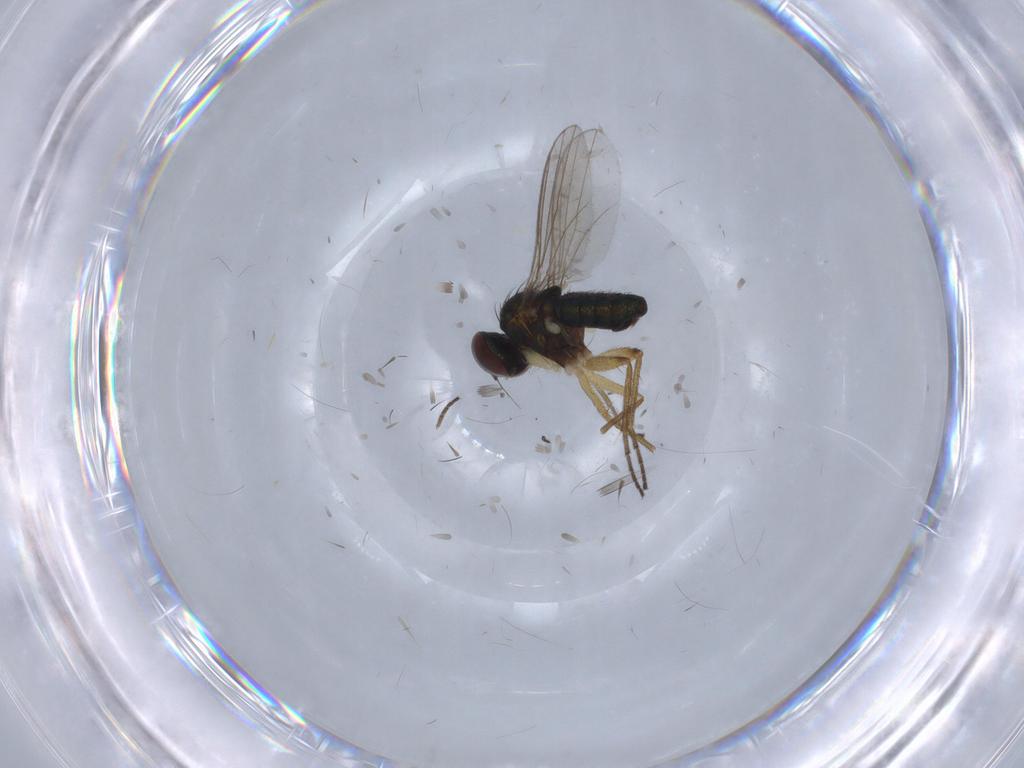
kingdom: Animalia
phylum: Arthropoda
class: Insecta
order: Diptera
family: Ceratopogonidae
